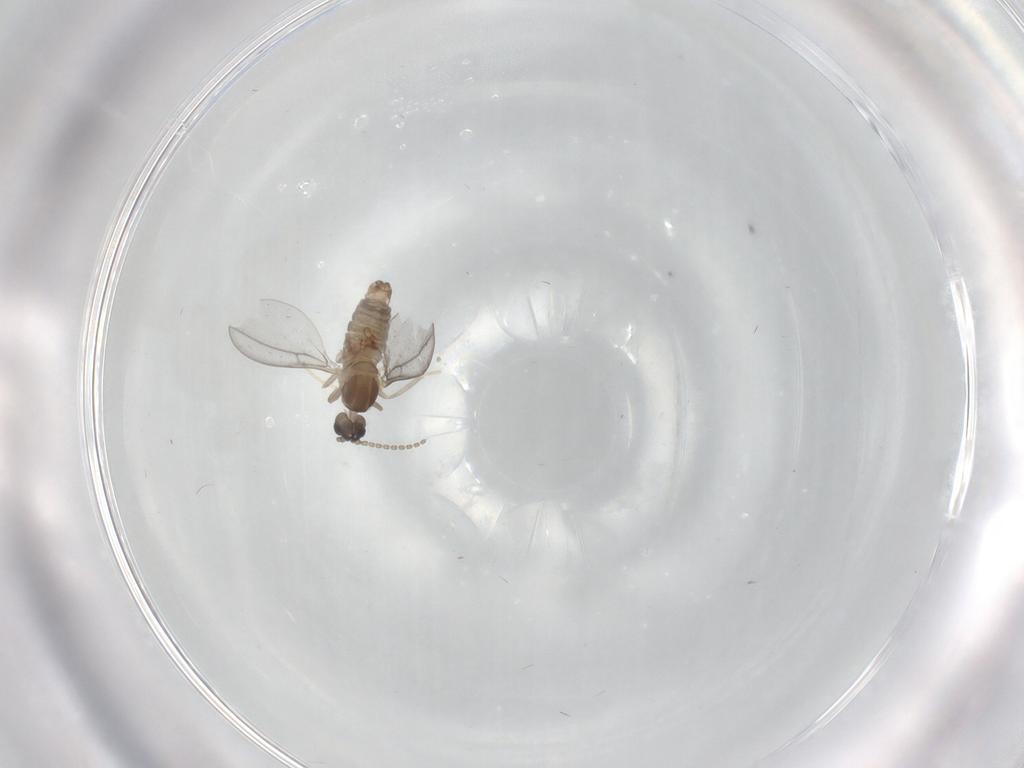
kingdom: Animalia
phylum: Arthropoda
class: Insecta
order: Diptera
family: Cecidomyiidae
